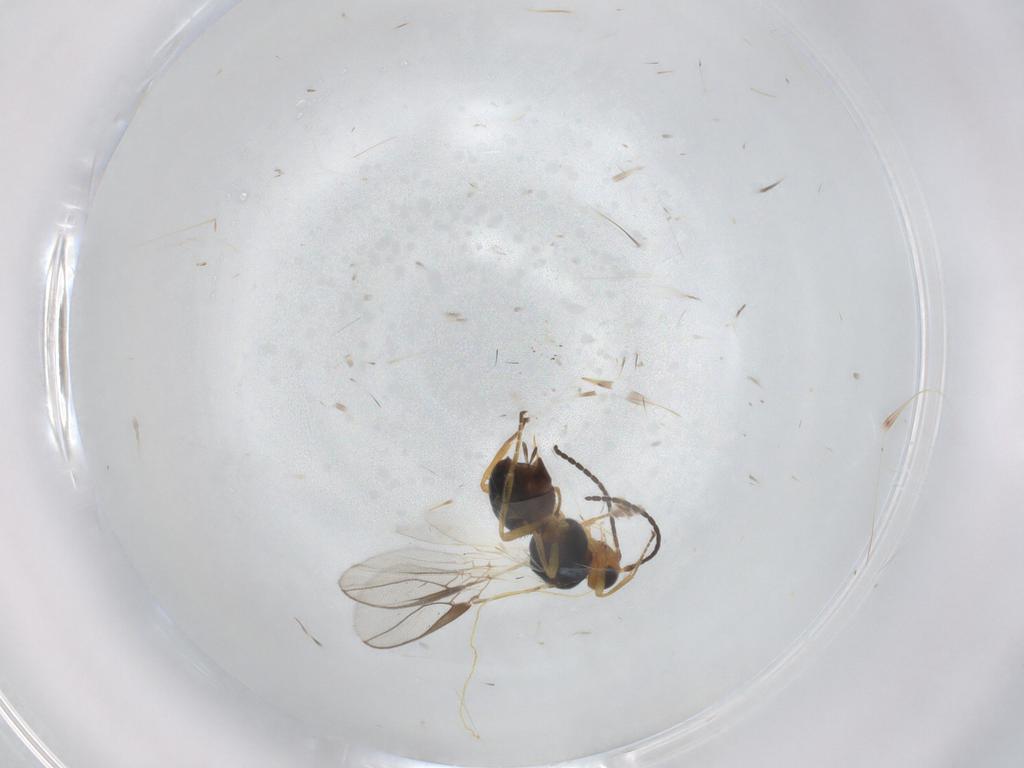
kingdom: Animalia
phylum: Arthropoda
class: Insecta
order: Hymenoptera
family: Braconidae
